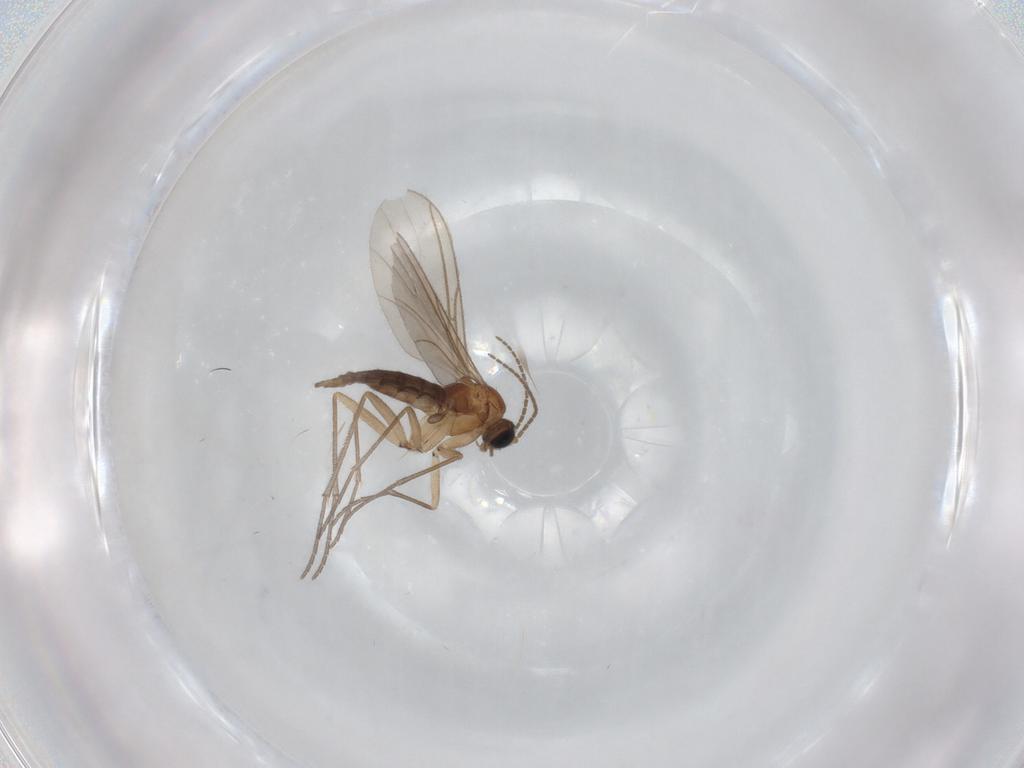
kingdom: Animalia
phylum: Arthropoda
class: Insecta
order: Diptera
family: Sciaridae
